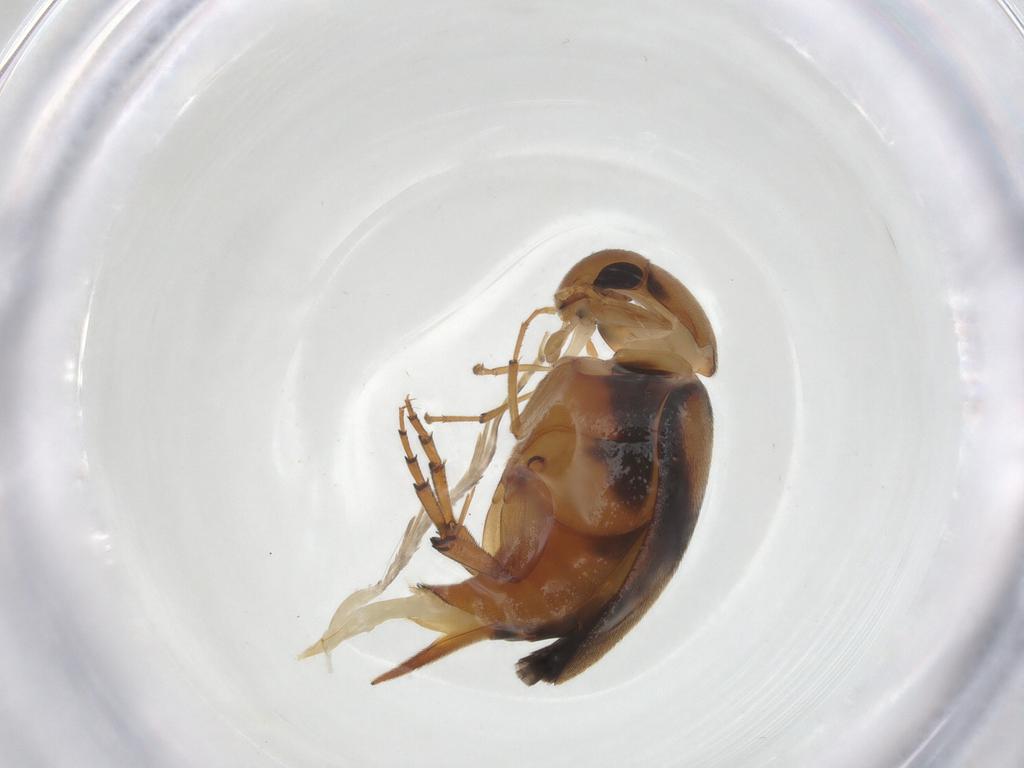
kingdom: Animalia
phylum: Arthropoda
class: Insecta
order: Coleoptera
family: Mordellidae
